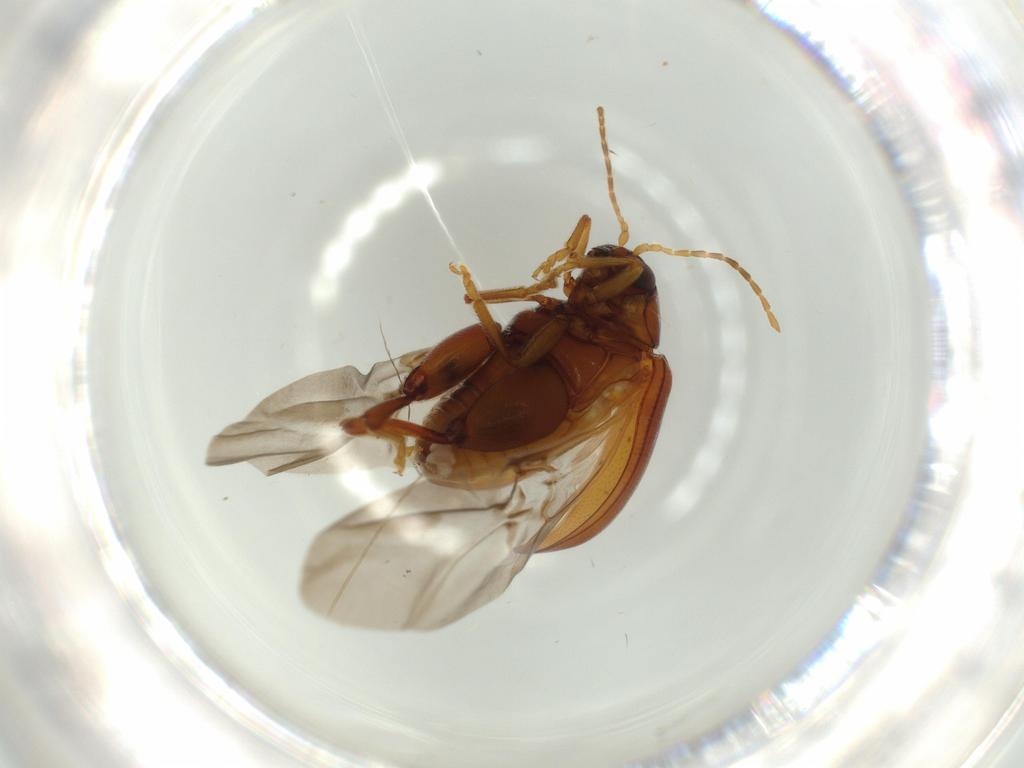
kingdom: Animalia
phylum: Arthropoda
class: Insecta
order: Coleoptera
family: Chrysomelidae
